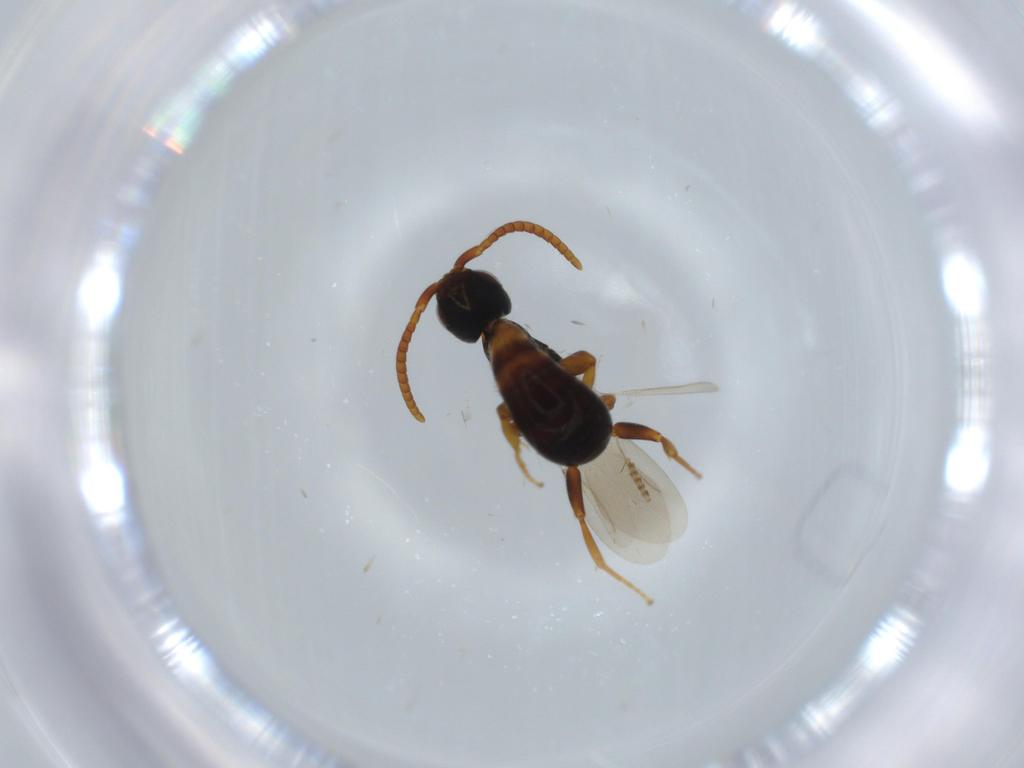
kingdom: Animalia
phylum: Arthropoda
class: Insecta
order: Hymenoptera
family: Bethylidae
